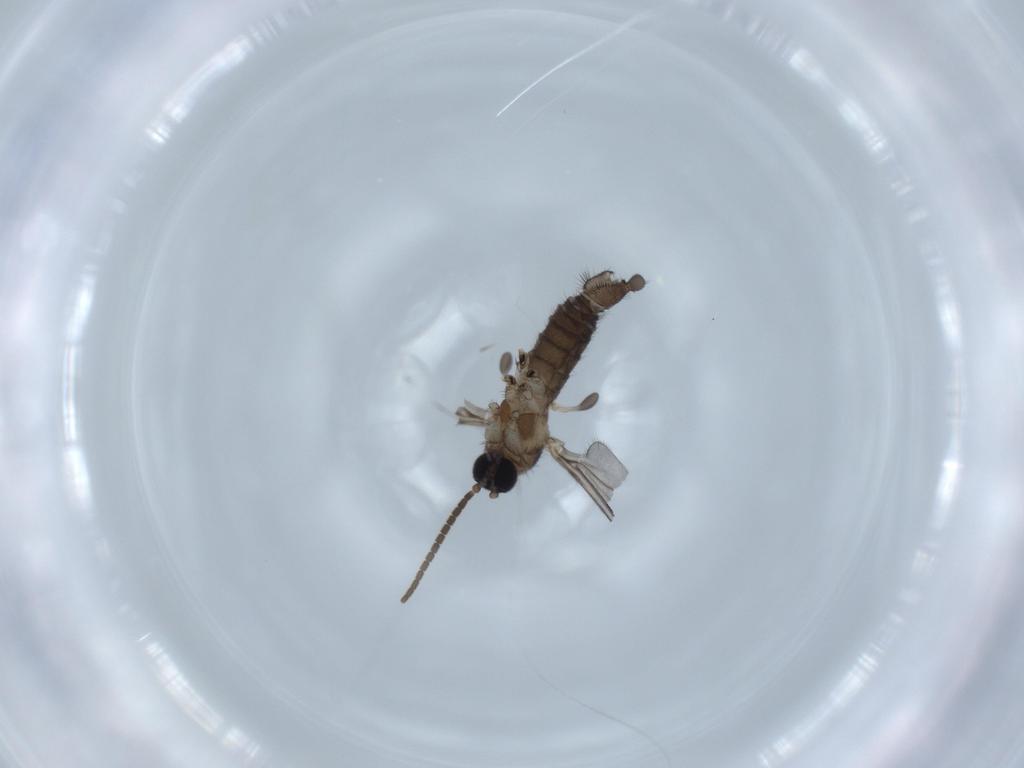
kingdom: Animalia
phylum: Arthropoda
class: Insecta
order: Diptera
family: Sciaridae
